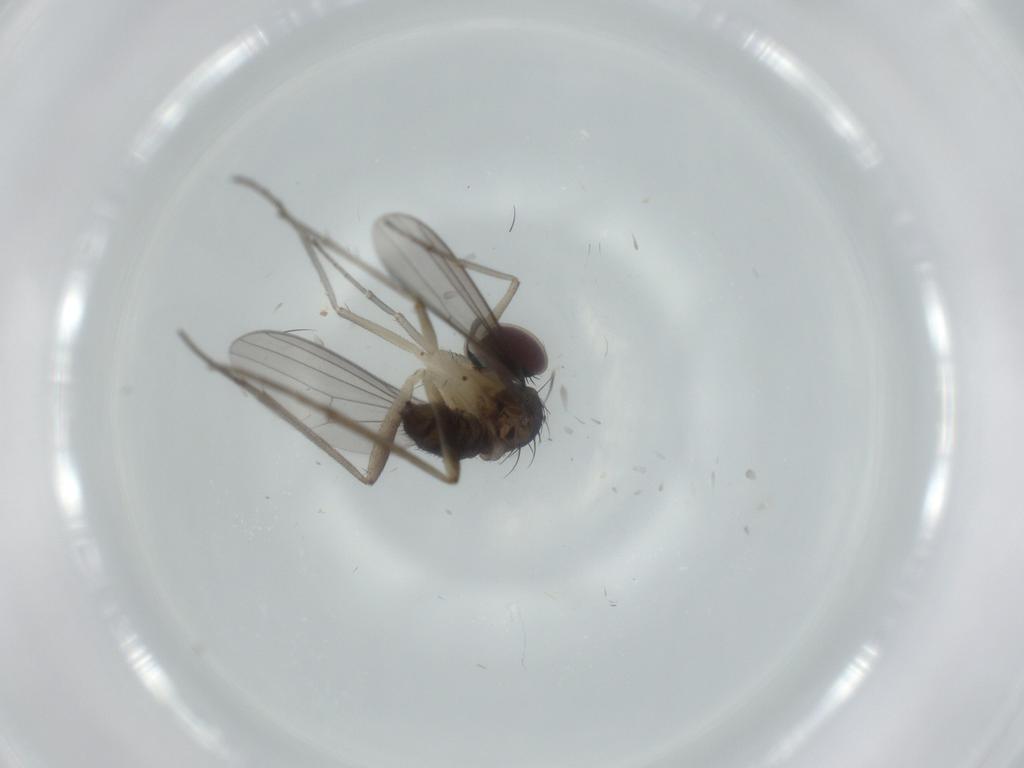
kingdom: Animalia
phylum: Arthropoda
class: Insecta
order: Diptera
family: Dolichopodidae
